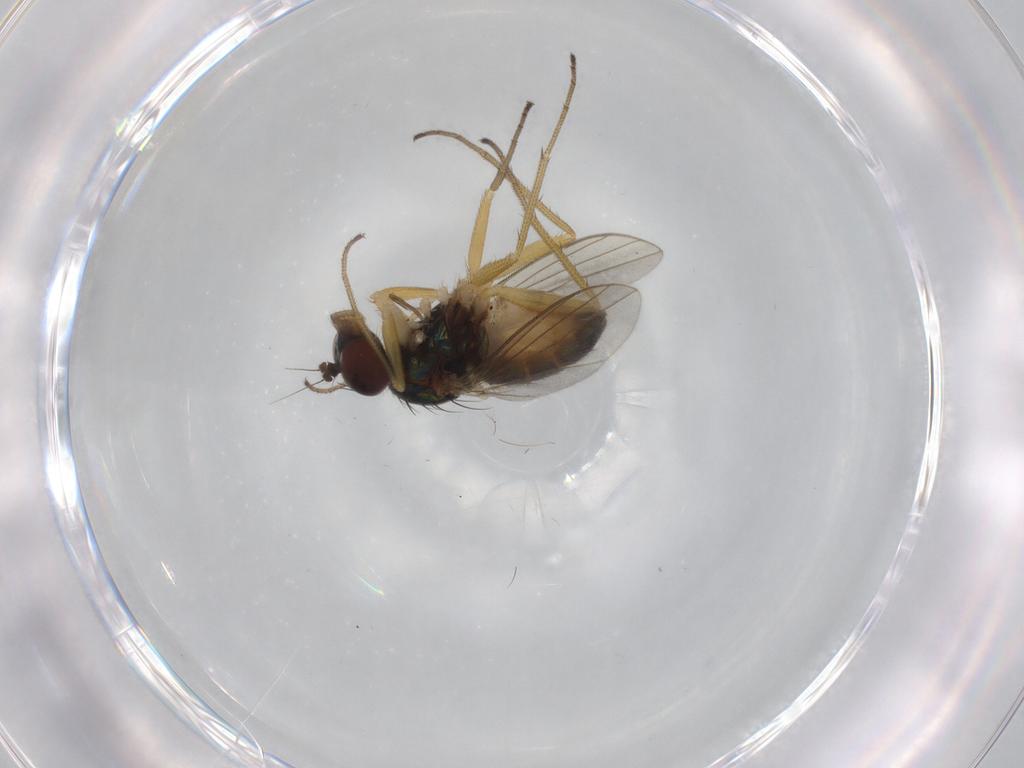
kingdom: Animalia
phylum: Arthropoda
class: Insecta
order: Diptera
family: Dolichopodidae
